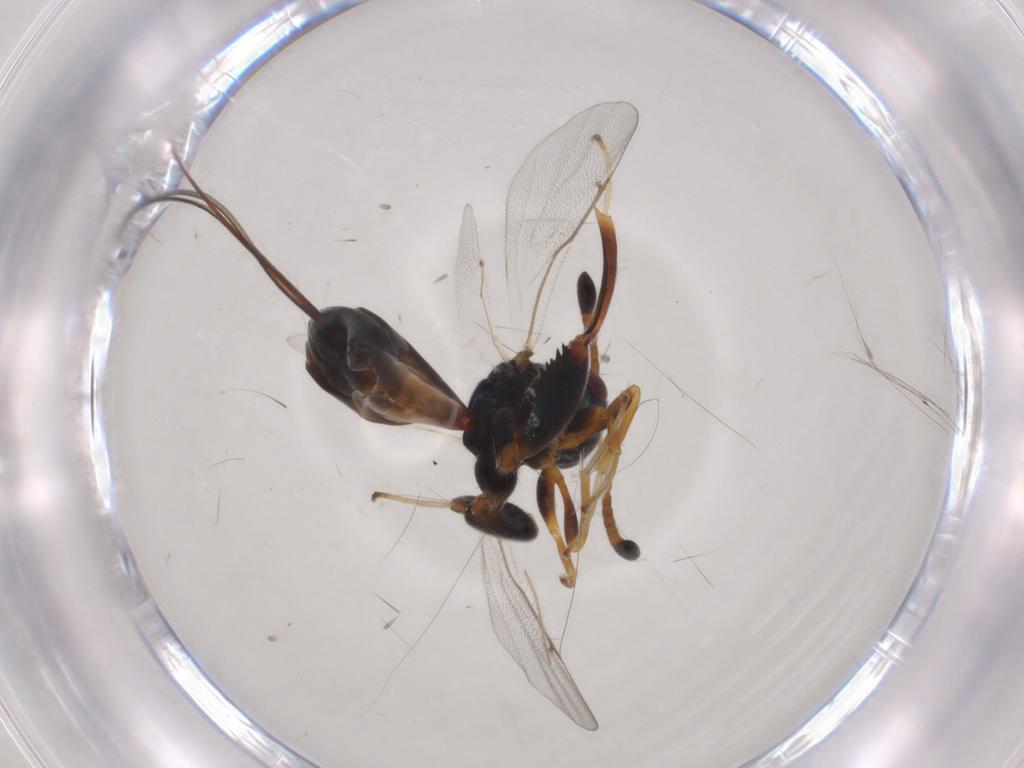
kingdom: Animalia
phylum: Arthropoda
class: Insecta
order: Hymenoptera
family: Torymidae
